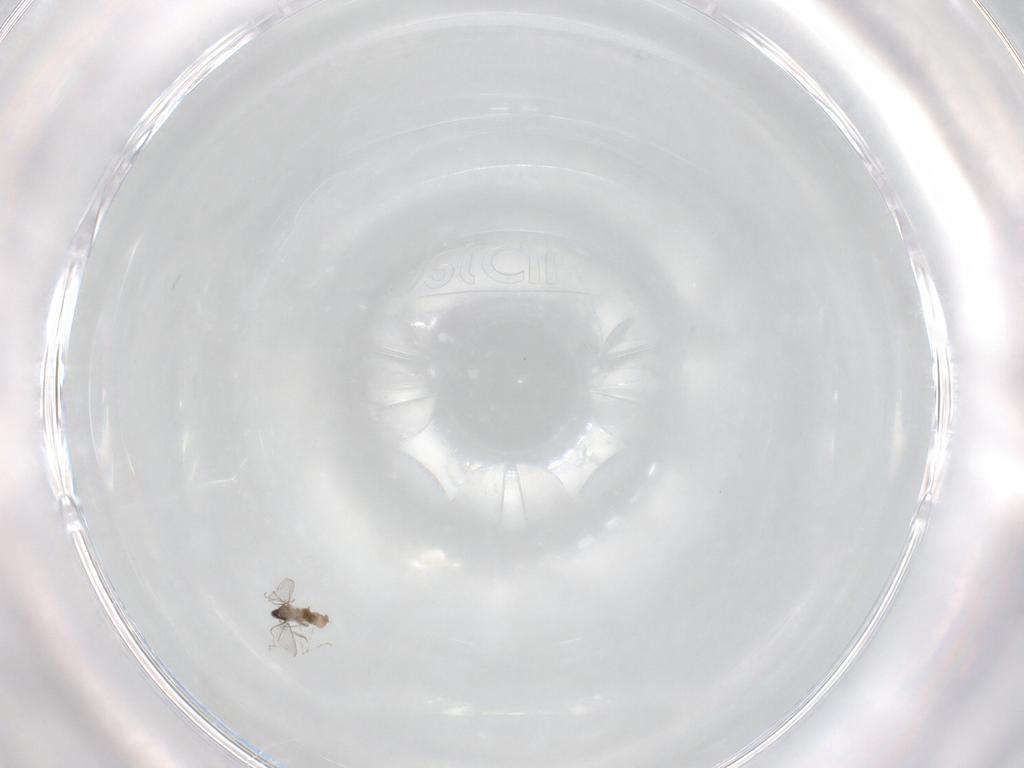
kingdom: Animalia
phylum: Arthropoda
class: Insecta
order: Diptera
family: Cecidomyiidae
